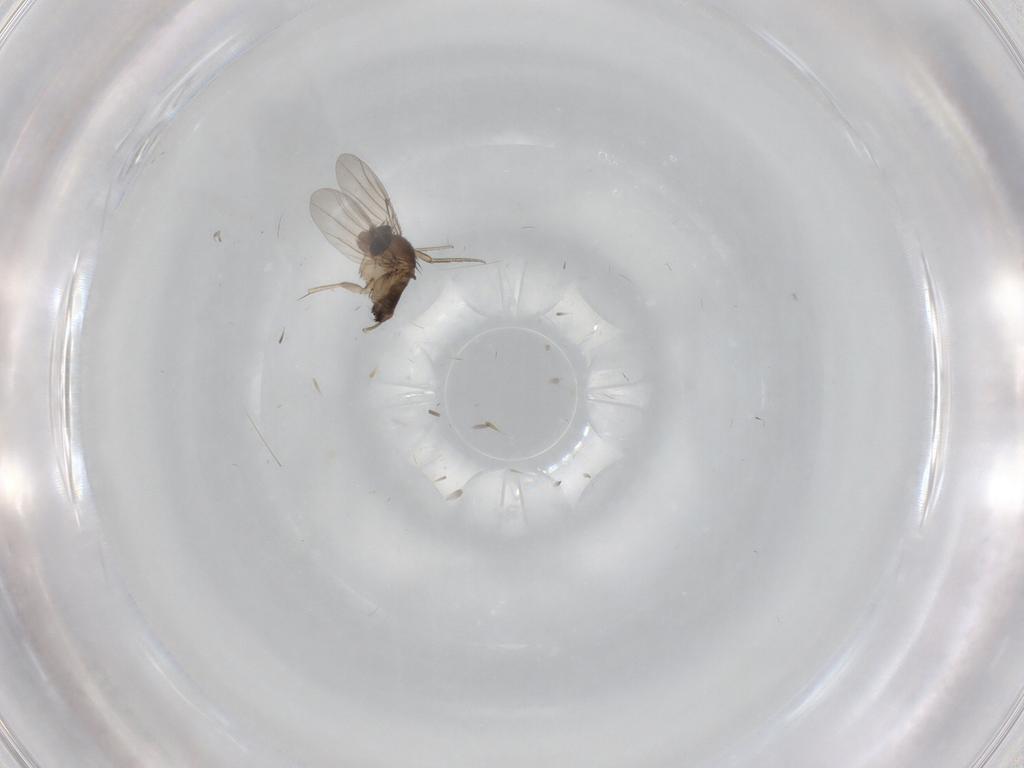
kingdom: Animalia
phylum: Arthropoda
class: Insecta
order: Diptera
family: Phoridae
